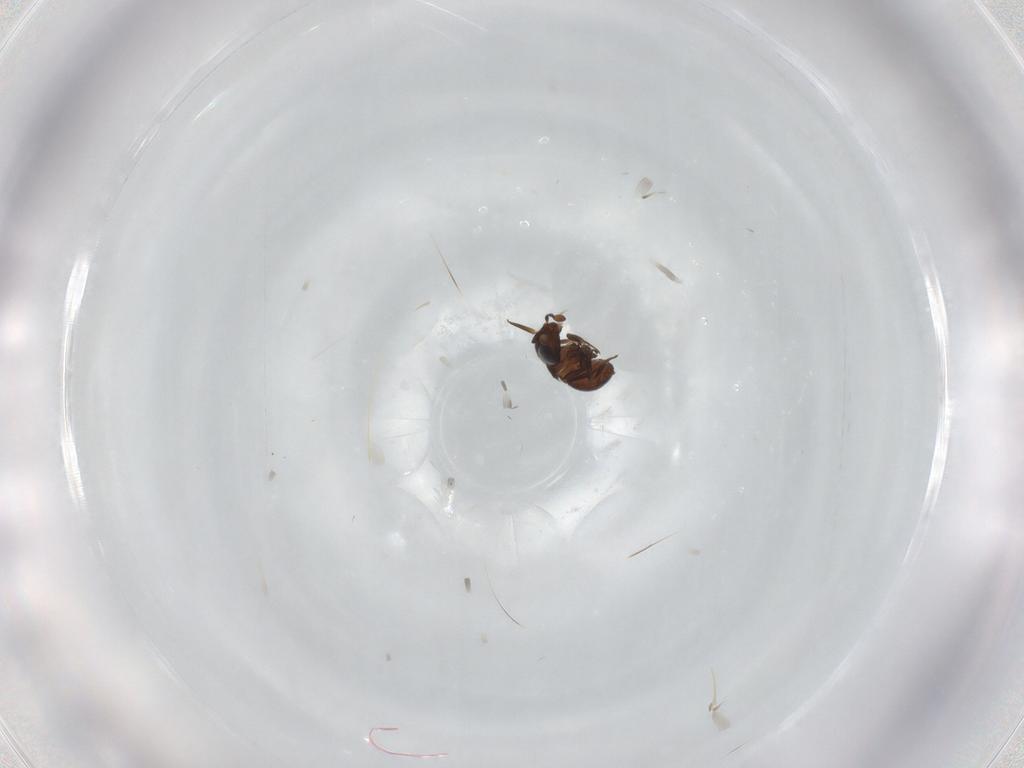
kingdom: Animalia
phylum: Arthropoda
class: Insecta
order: Hymenoptera
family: Scelionidae
